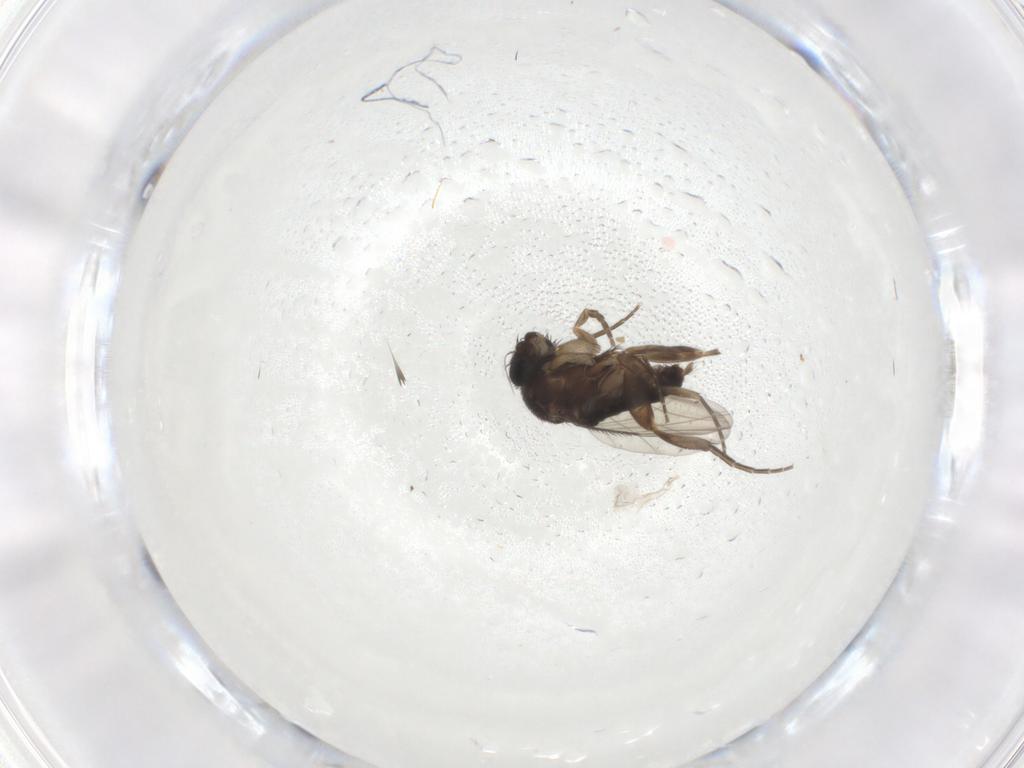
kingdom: Animalia
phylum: Arthropoda
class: Insecta
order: Diptera
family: Phoridae
